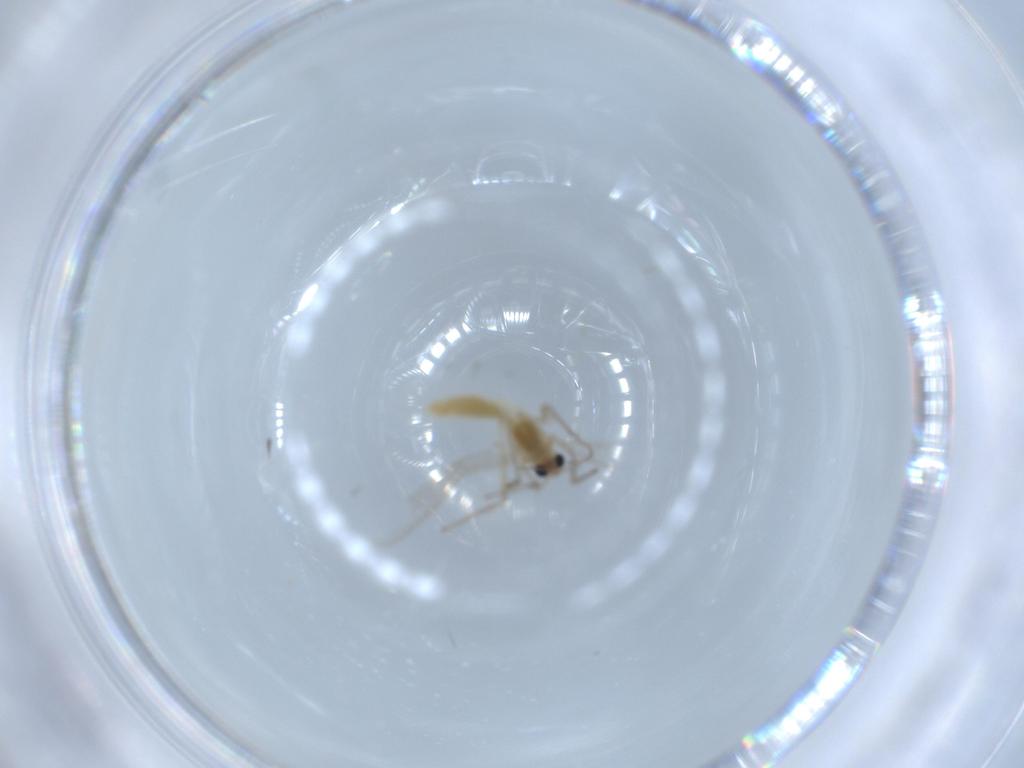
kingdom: Animalia
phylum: Arthropoda
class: Insecta
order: Diptera
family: Chironomidae
